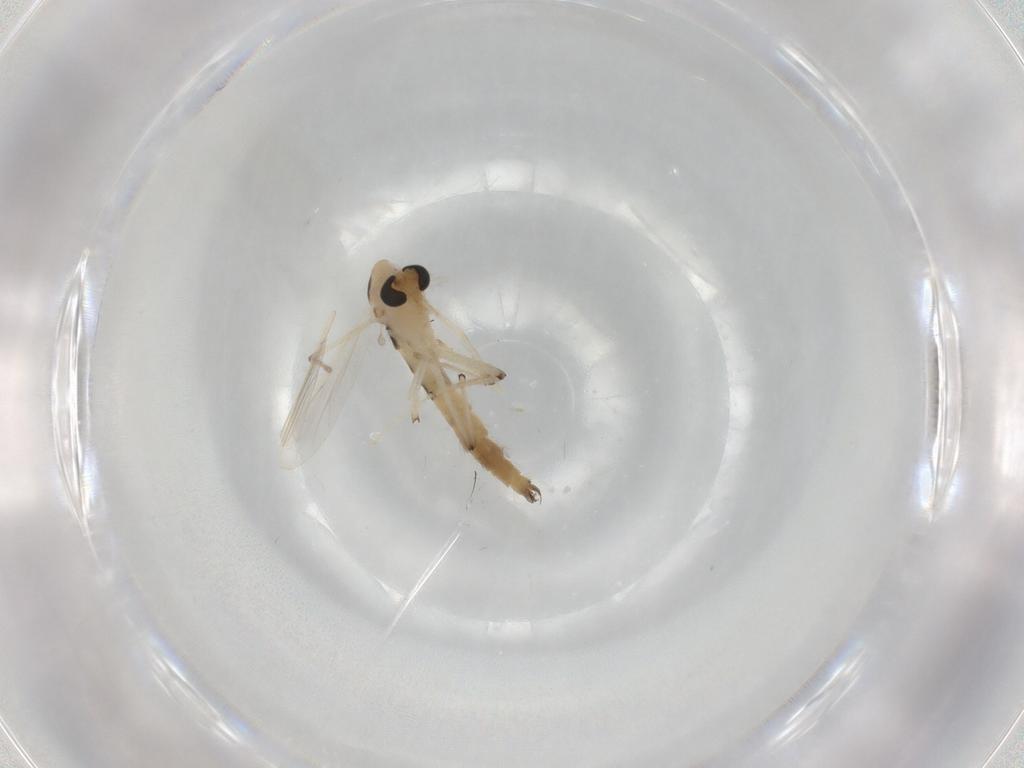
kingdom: Animalia
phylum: Arthropoda
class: Insecta
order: Diptera
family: Chironomidae
